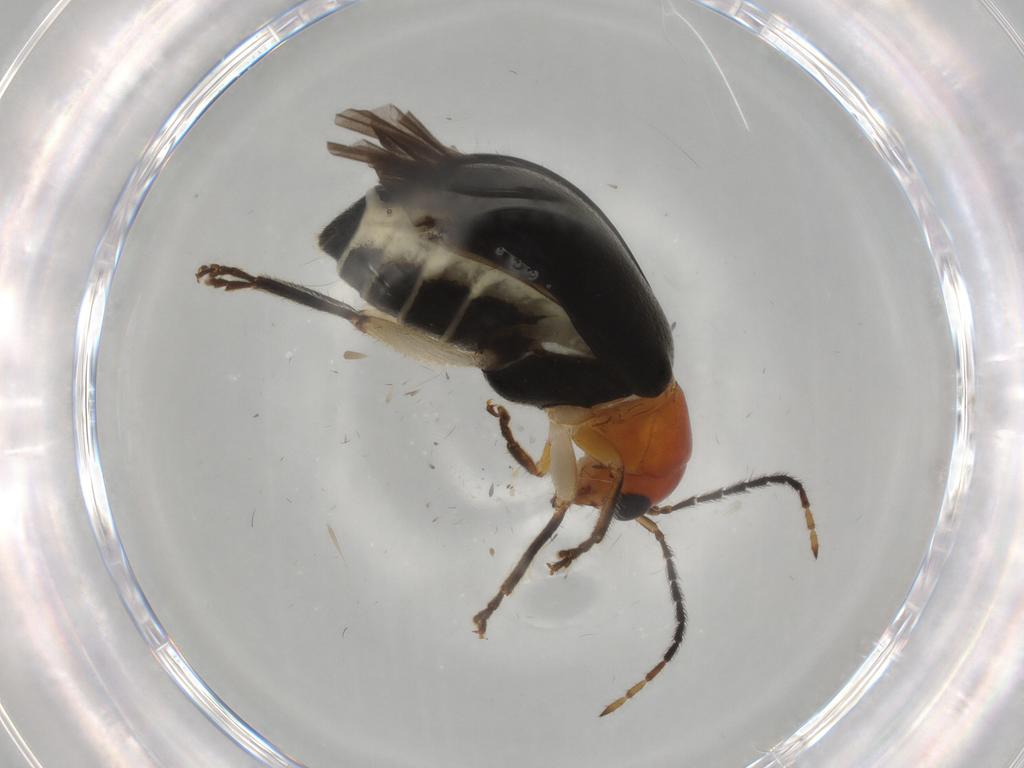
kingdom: Animalia
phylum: Arthropoda
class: Insecta
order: Coleoptera
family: Chrysomelidae
